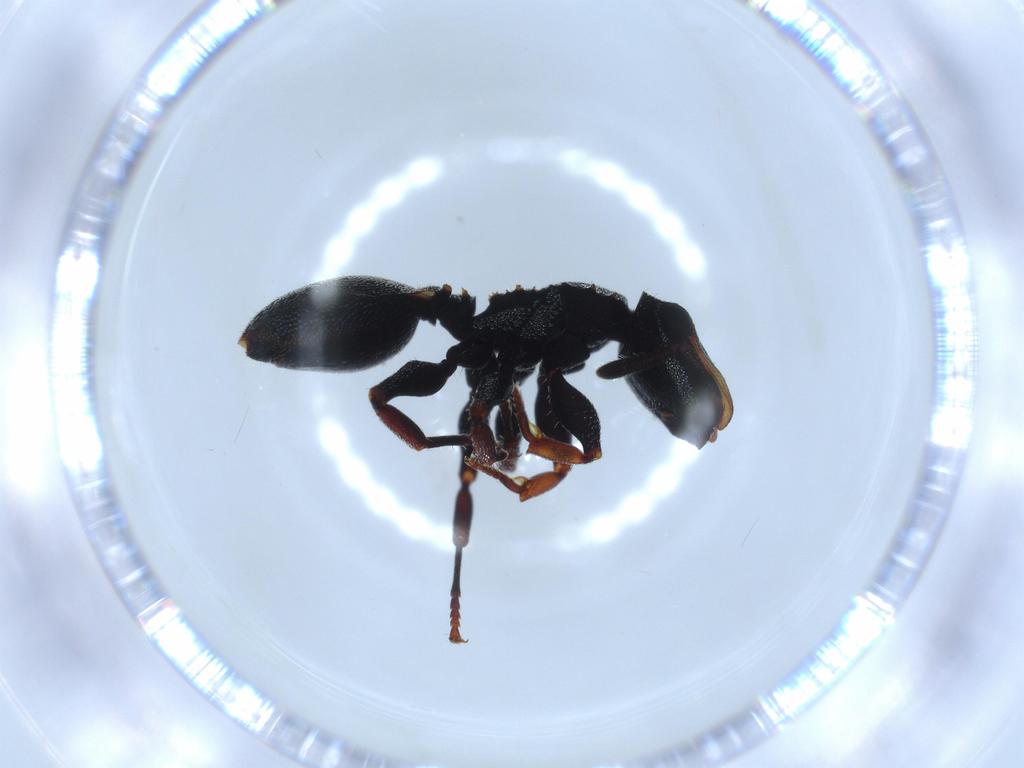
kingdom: Animalia
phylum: Arthropoda
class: Insecta
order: Hymenoptera
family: Formicidae
